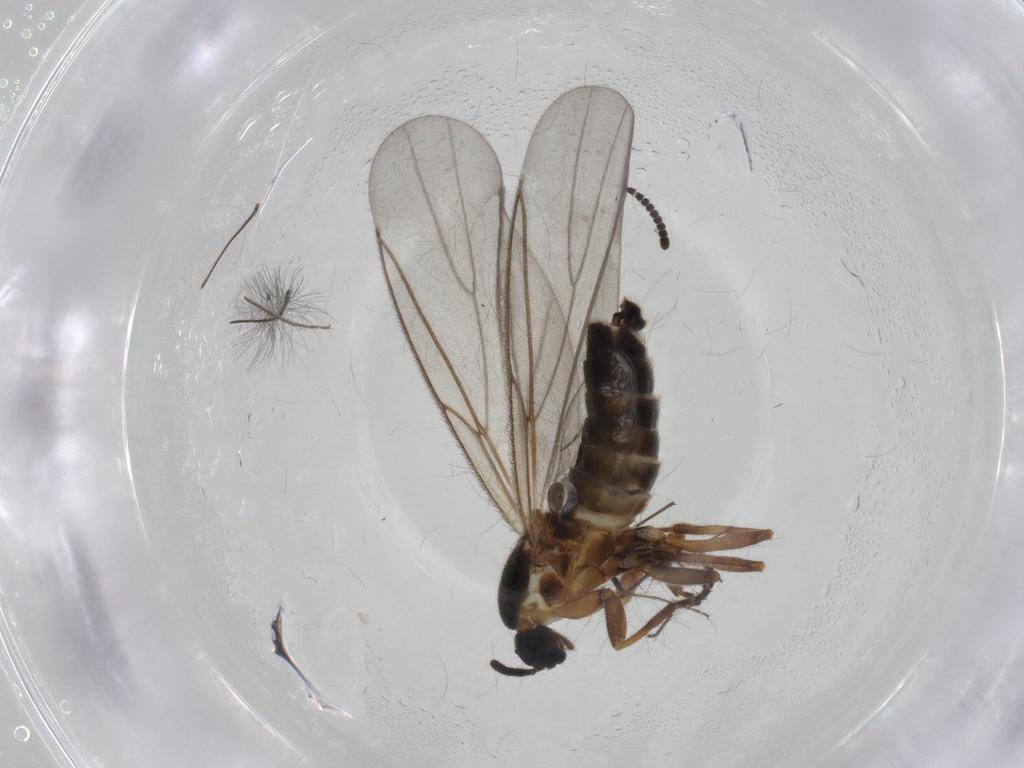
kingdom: Animalia
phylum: Arthropoda
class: Insecta
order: Diptera
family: Scatopsidae
